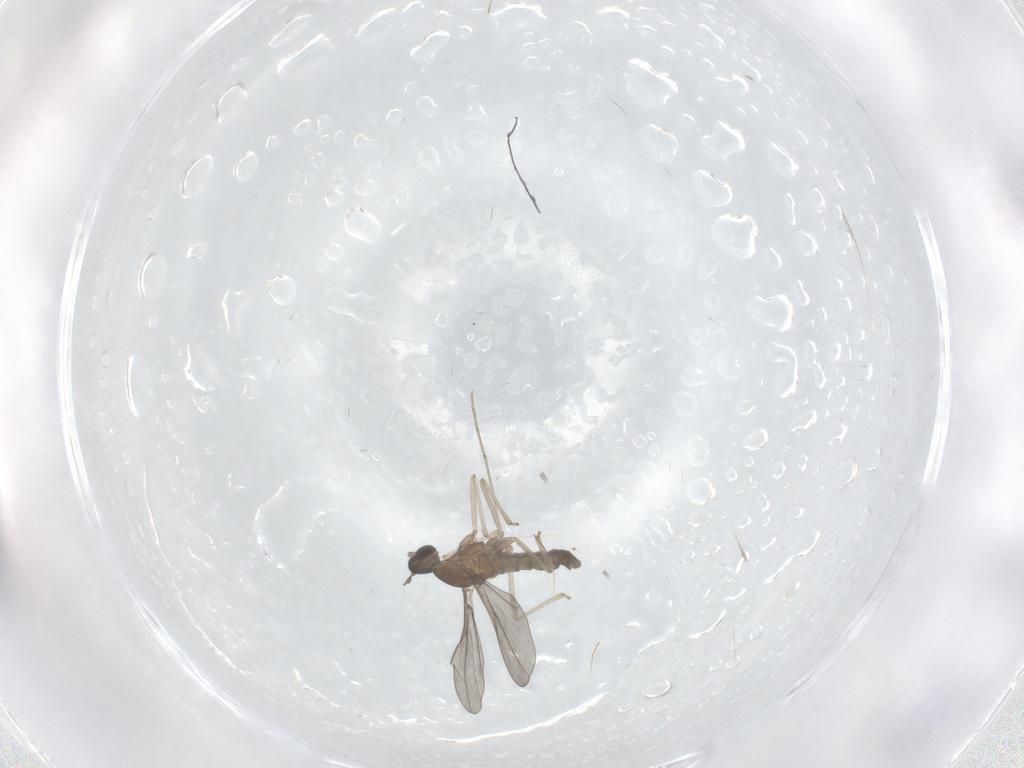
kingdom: Animalia
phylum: Arthropoda
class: Insecta
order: Diptera
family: Cecidomyiidae
